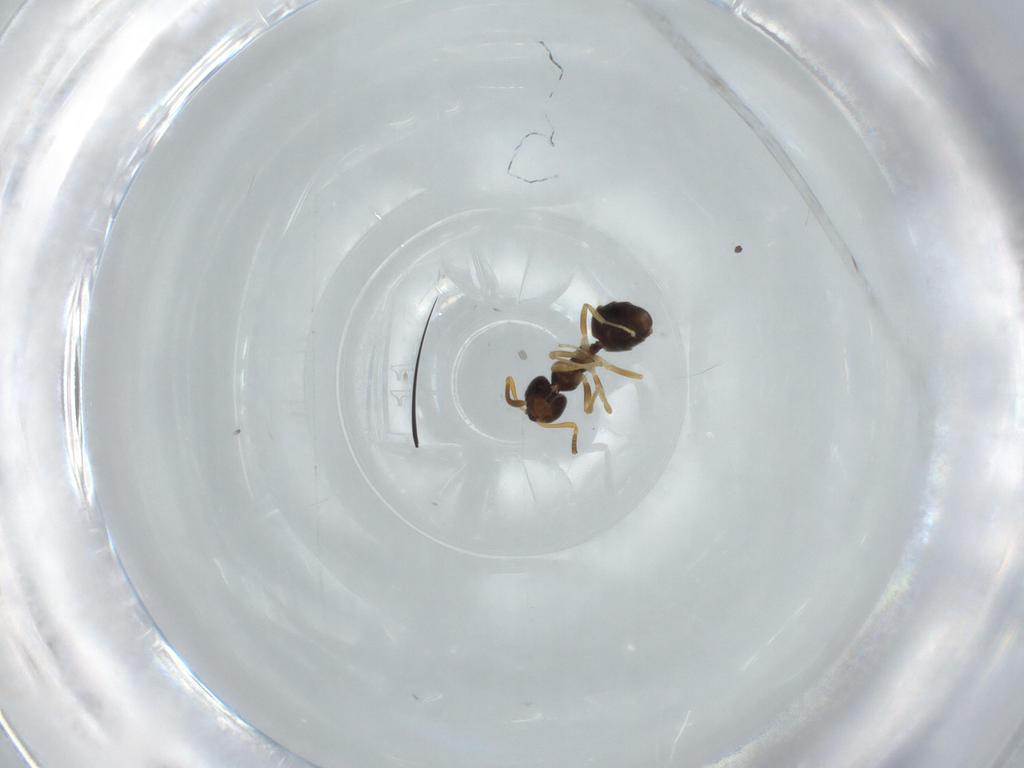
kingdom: Animalia
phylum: Arthropoda
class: Insecta
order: Hymenoptera
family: Formicidae
